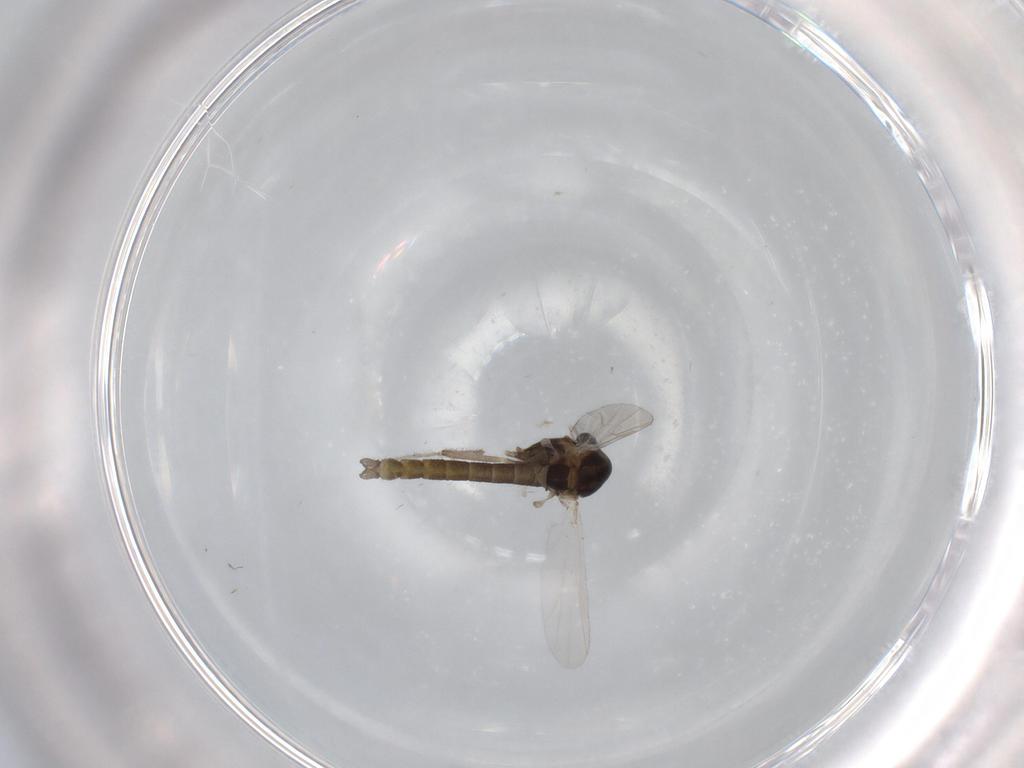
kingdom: Animalia
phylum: Arthropoda
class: Insecta
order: Diptera
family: Chironomidae
